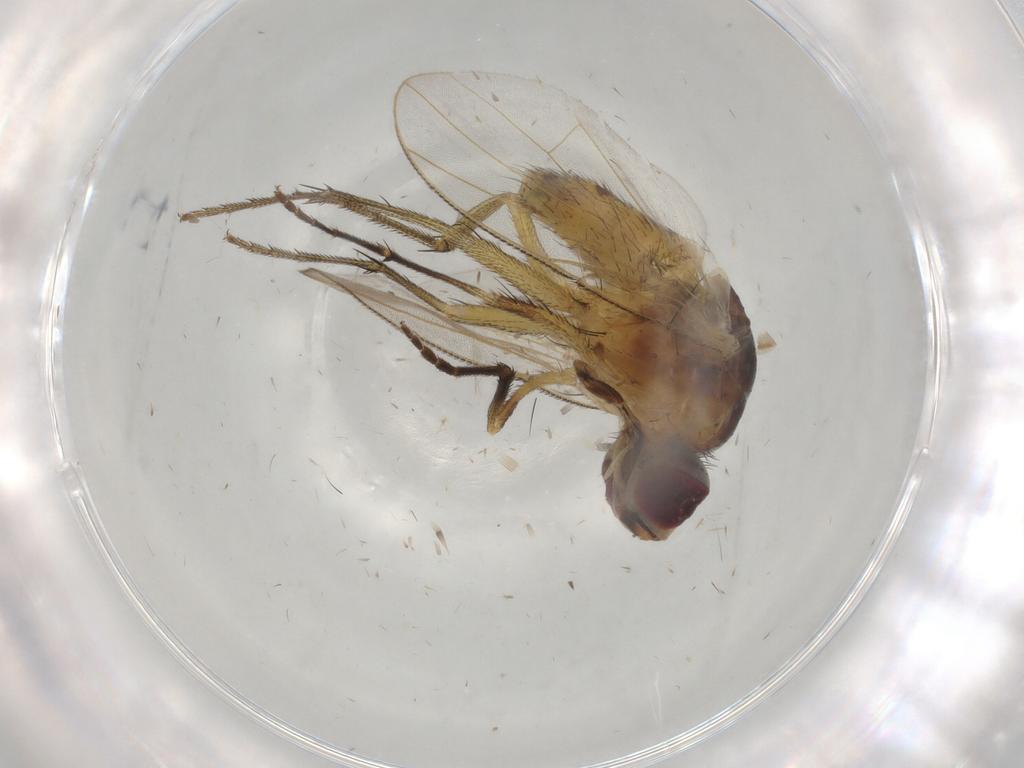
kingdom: Animalia
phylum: Arthropoda
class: Insecta
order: Diptera
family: Muscidae
